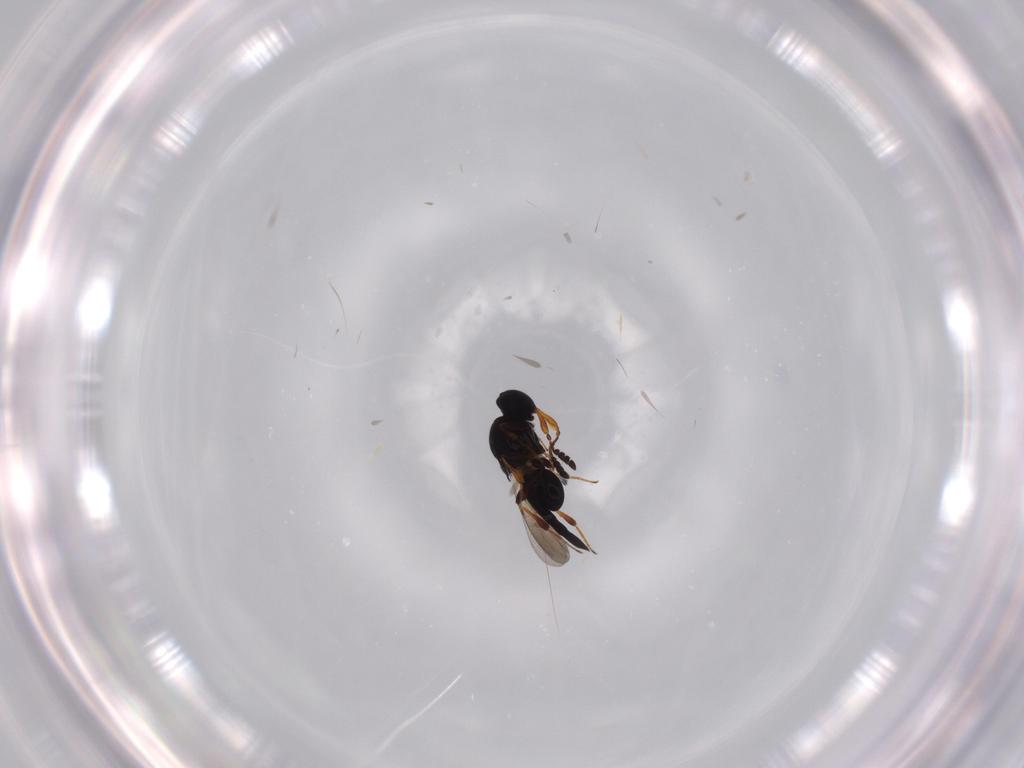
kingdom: Animalia
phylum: Arthropoda
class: Insecta
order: Hymenoptera
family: Platygastridae
